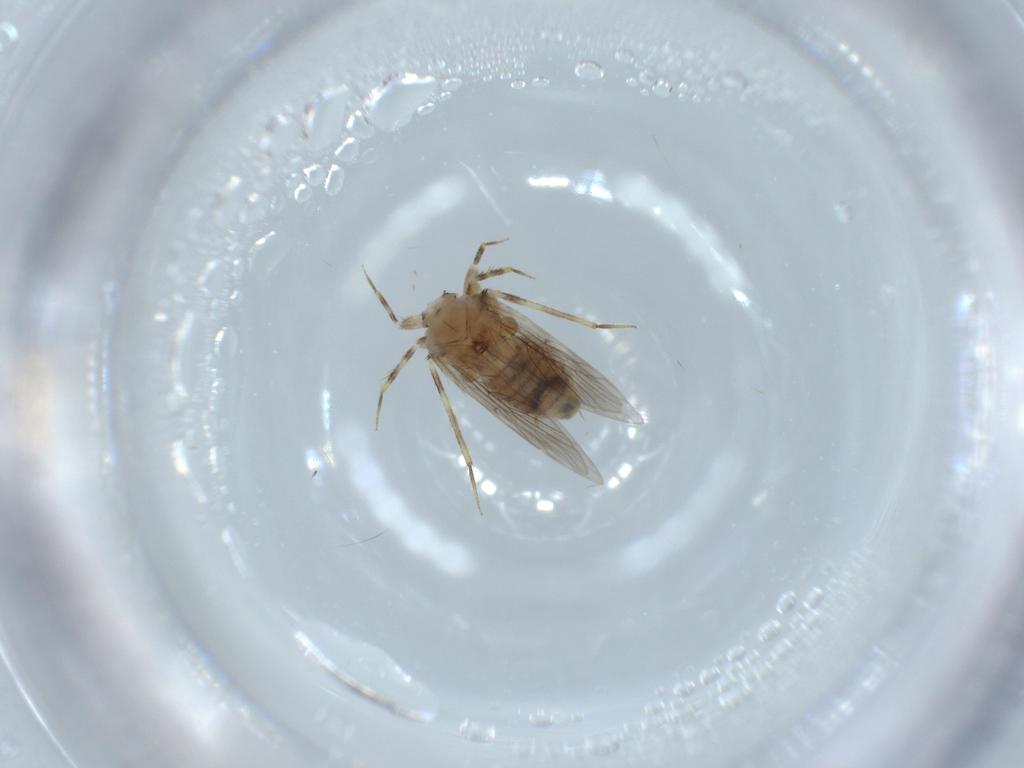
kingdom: Animalia
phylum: Arthropoda
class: Insecta
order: Psocodea
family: Lepidopsocidae
